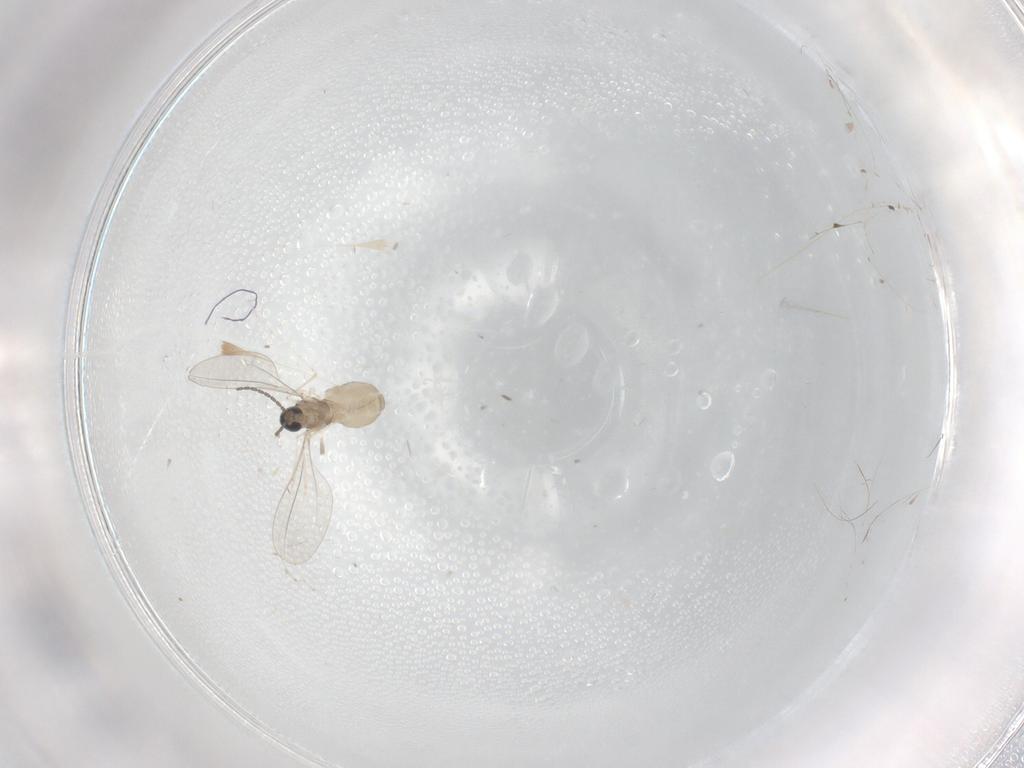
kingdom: Animalia
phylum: Arthropoda
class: Insecta
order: Diptera
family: Cecidomyiidae
